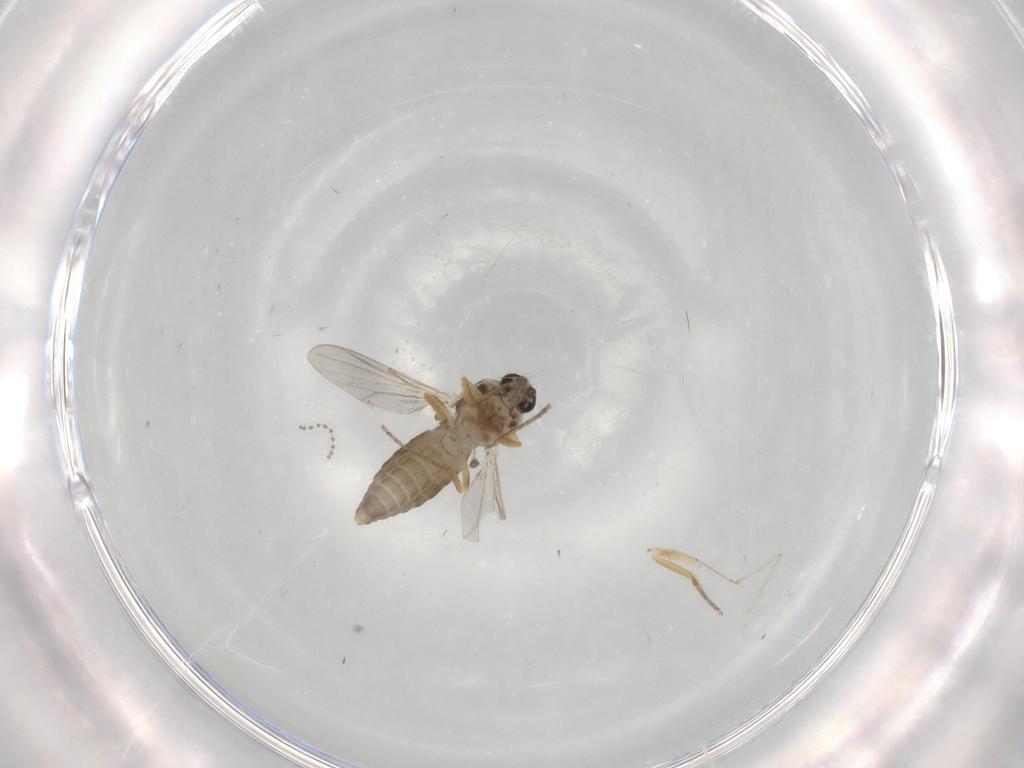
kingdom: Animalia
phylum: Arthropoda
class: Insecta
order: Diptera
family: Ceratopogonidae
